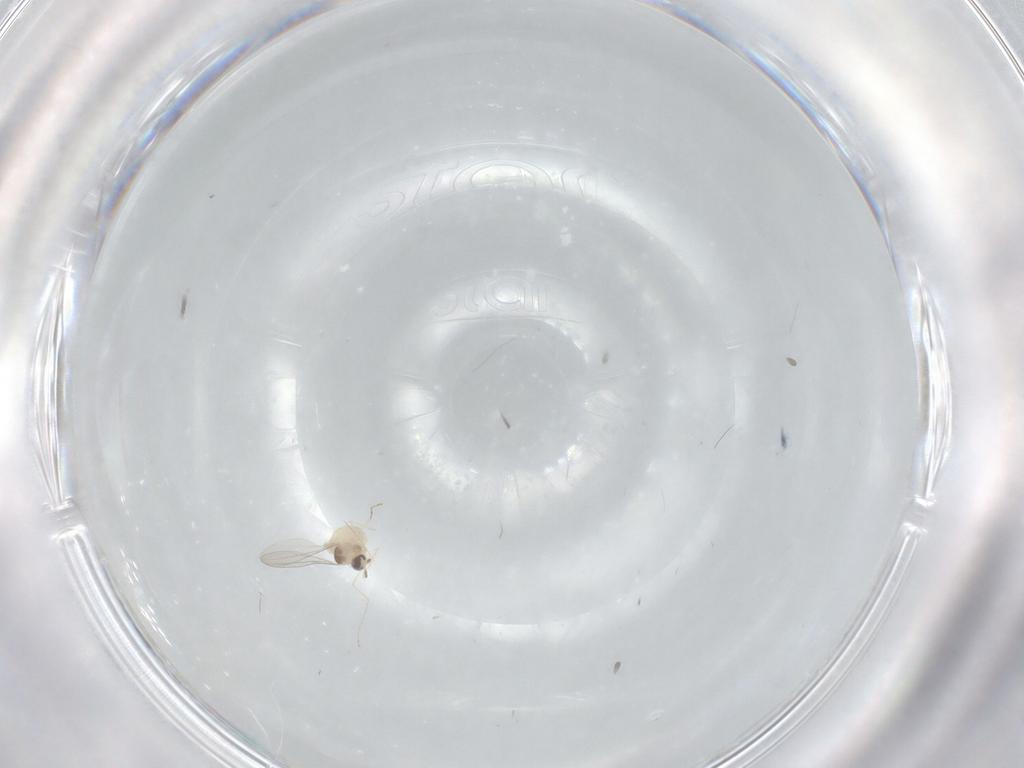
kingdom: Animalia
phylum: Arthropoda
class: Insecta
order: Diptera
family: Cecidomyiidae
